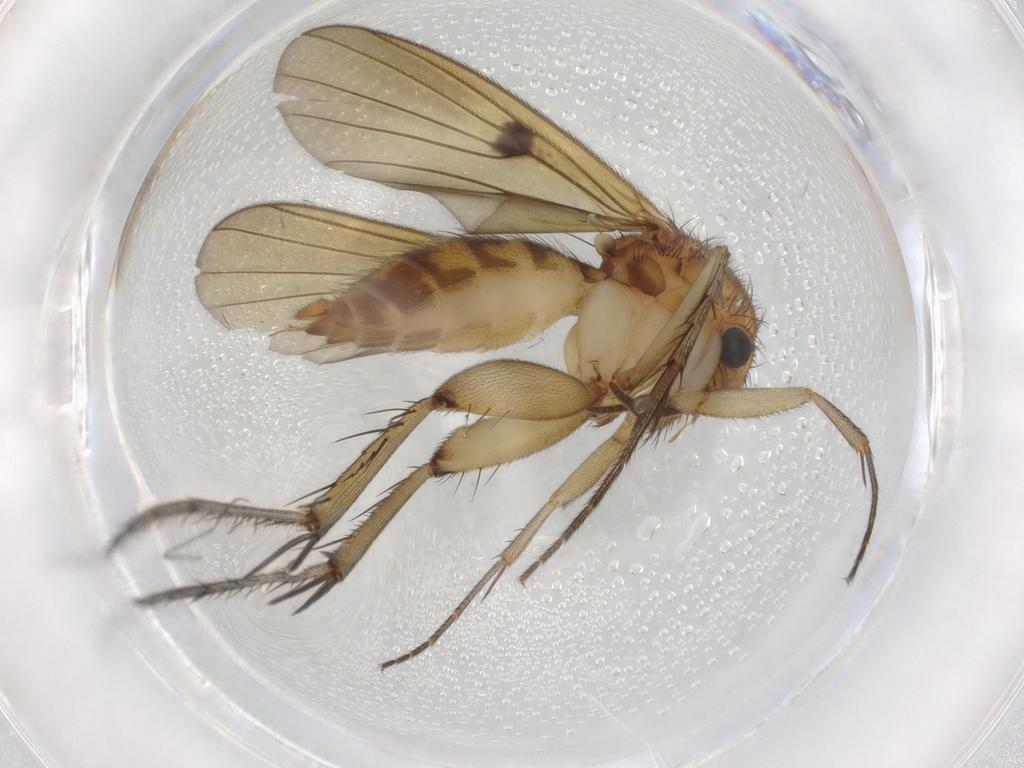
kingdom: Animalia
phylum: Arthropoda
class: Insecta
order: Diptera
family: Mycetophilidae
